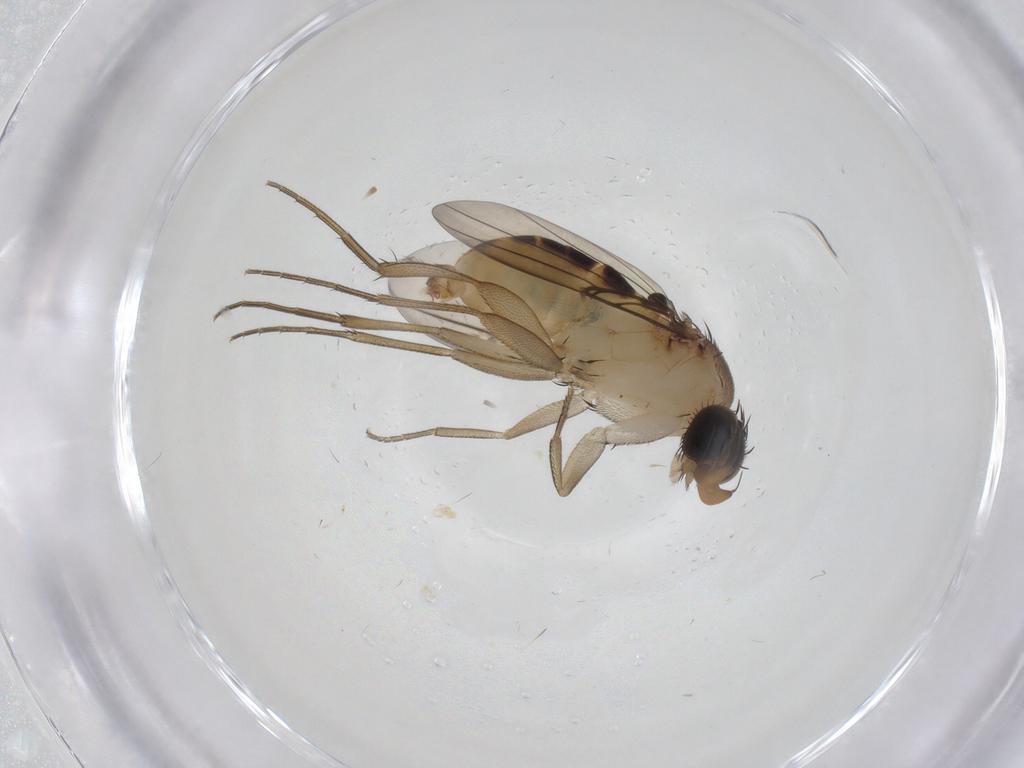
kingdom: Animalia
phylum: Arthropoda
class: Insecta
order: Diptera
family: Phoridae
